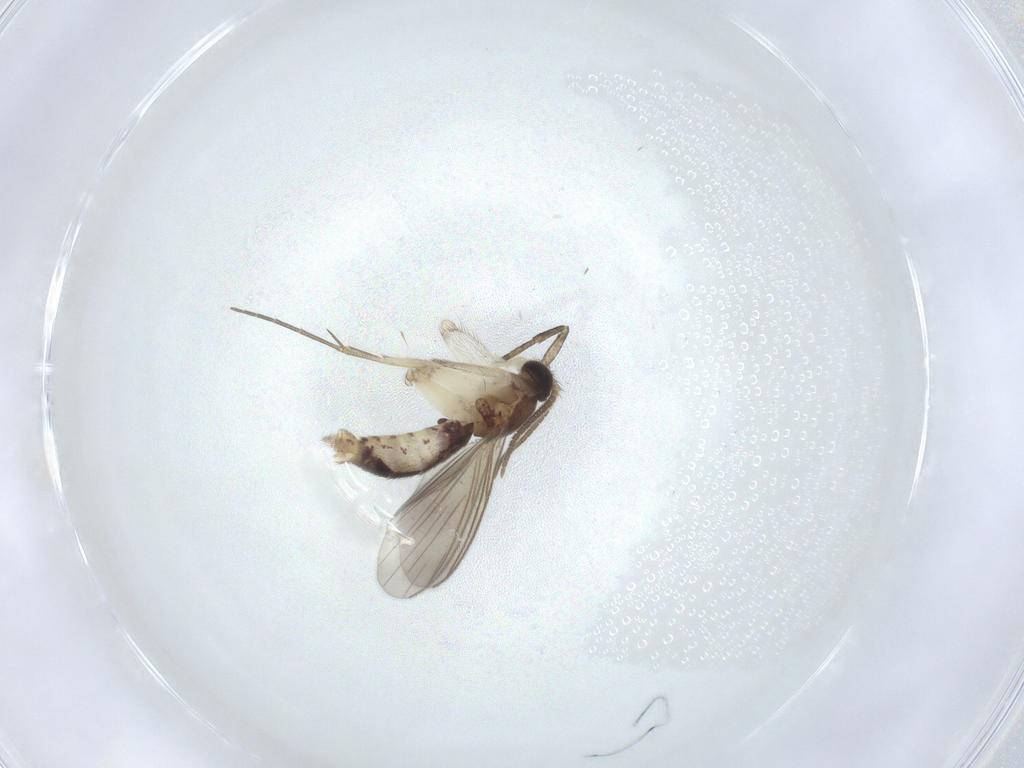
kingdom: Animalia
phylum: Arthropoda
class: Insecta
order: Diptera
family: Mycetophilidae
